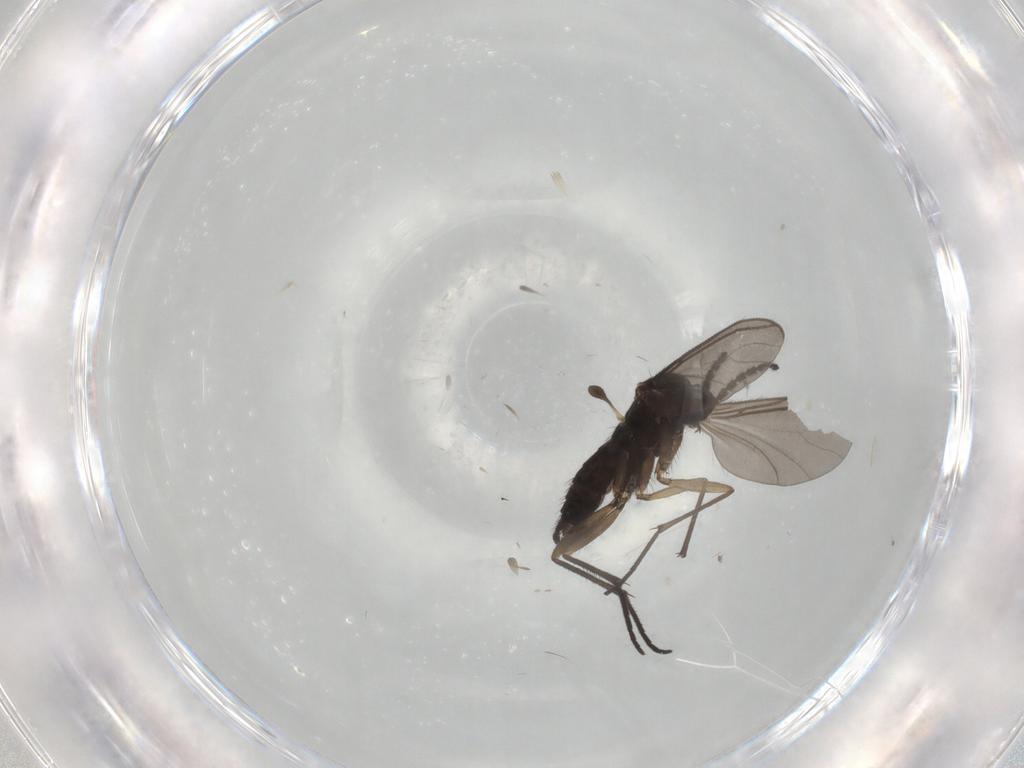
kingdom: Animalia
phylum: Arthropoda
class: Insecta
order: Diptera
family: Sciaridae
